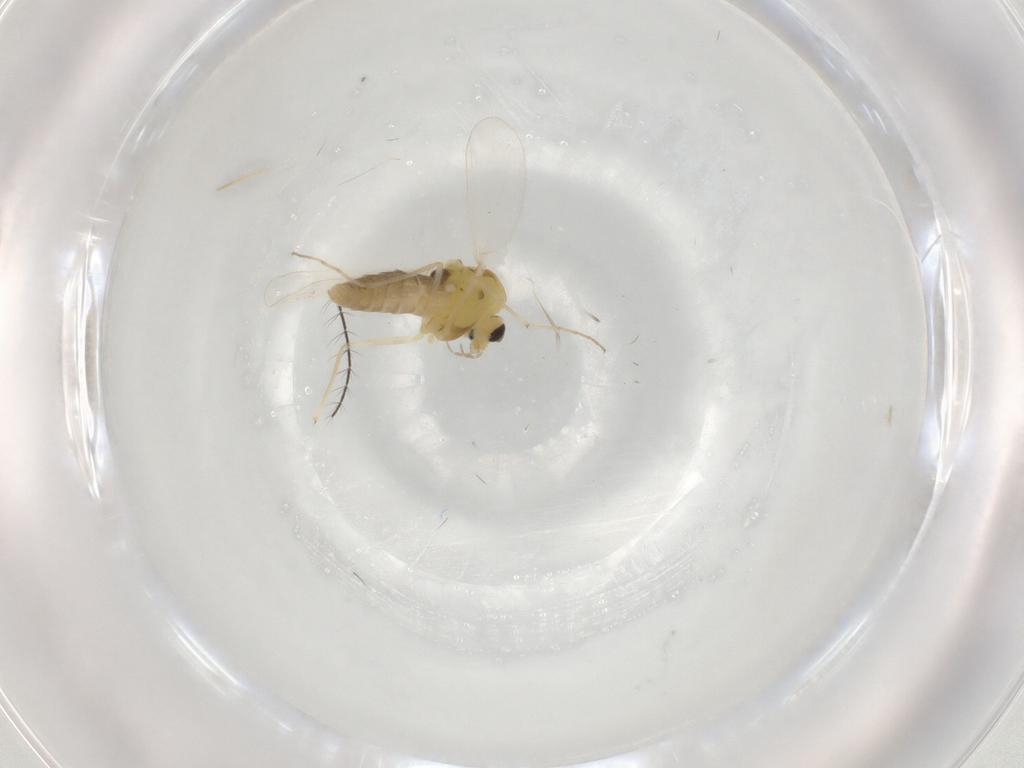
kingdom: Animalia
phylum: Arthropoda
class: Insecta
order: Diptera
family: Chironomidae
